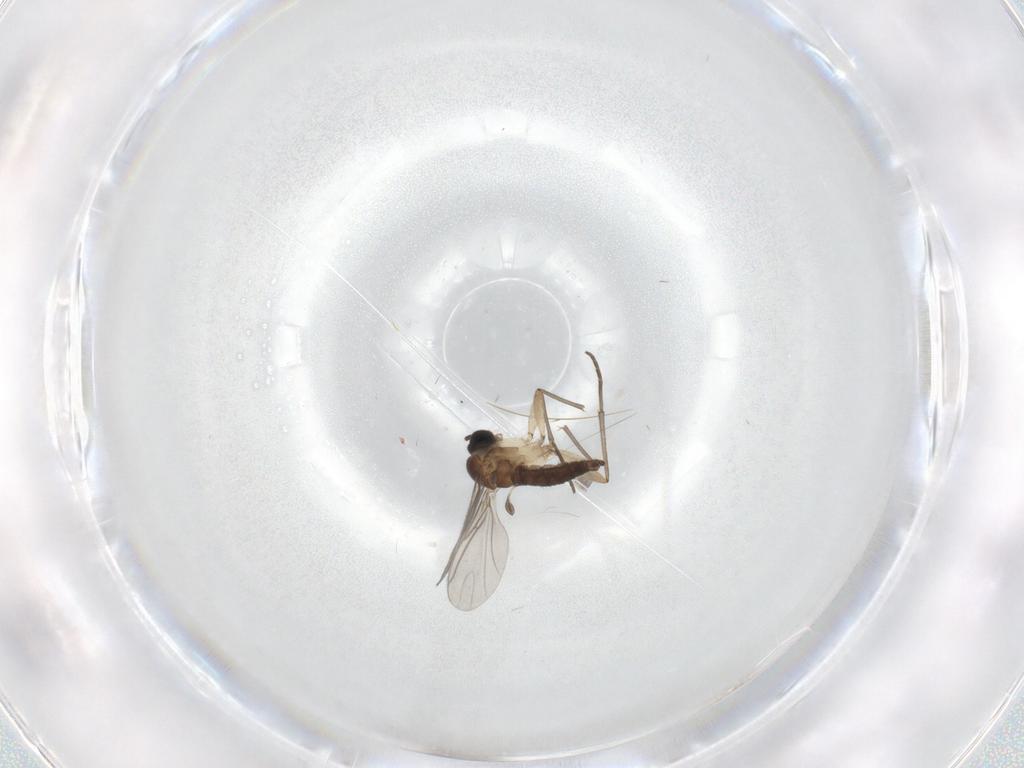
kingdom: Animalia
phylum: Arthropoda
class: Insecta
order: Diptera
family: Sciaridae
